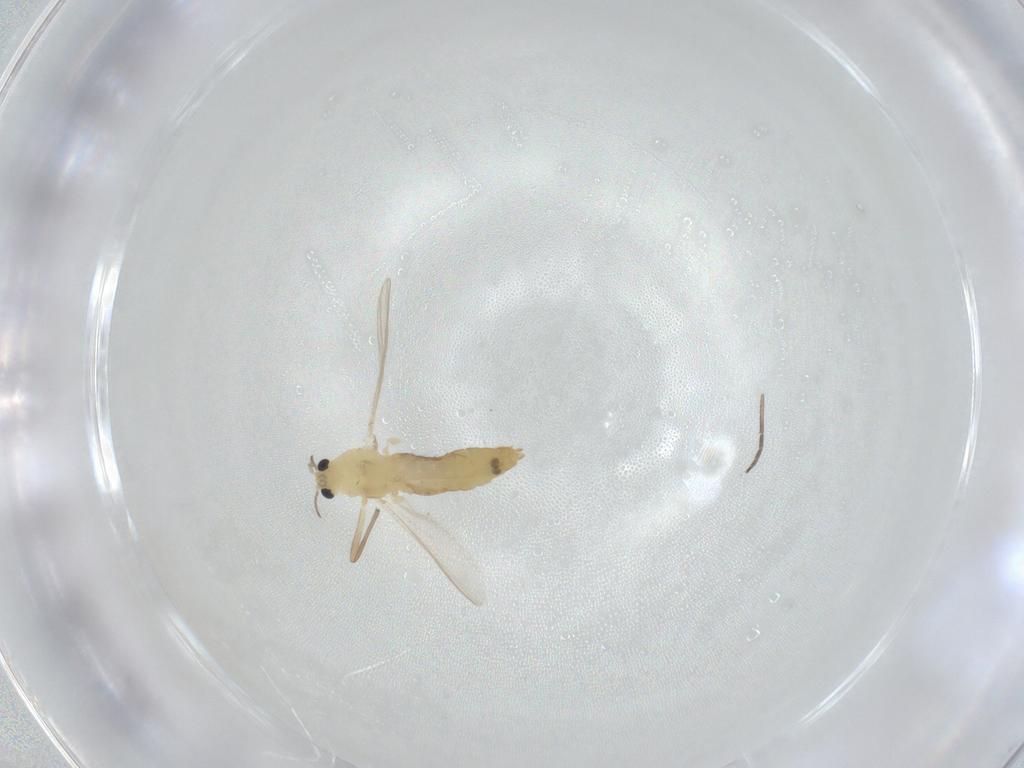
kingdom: Animalia
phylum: Arthropoda
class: Insecta
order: Diptera
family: Chironomidae
